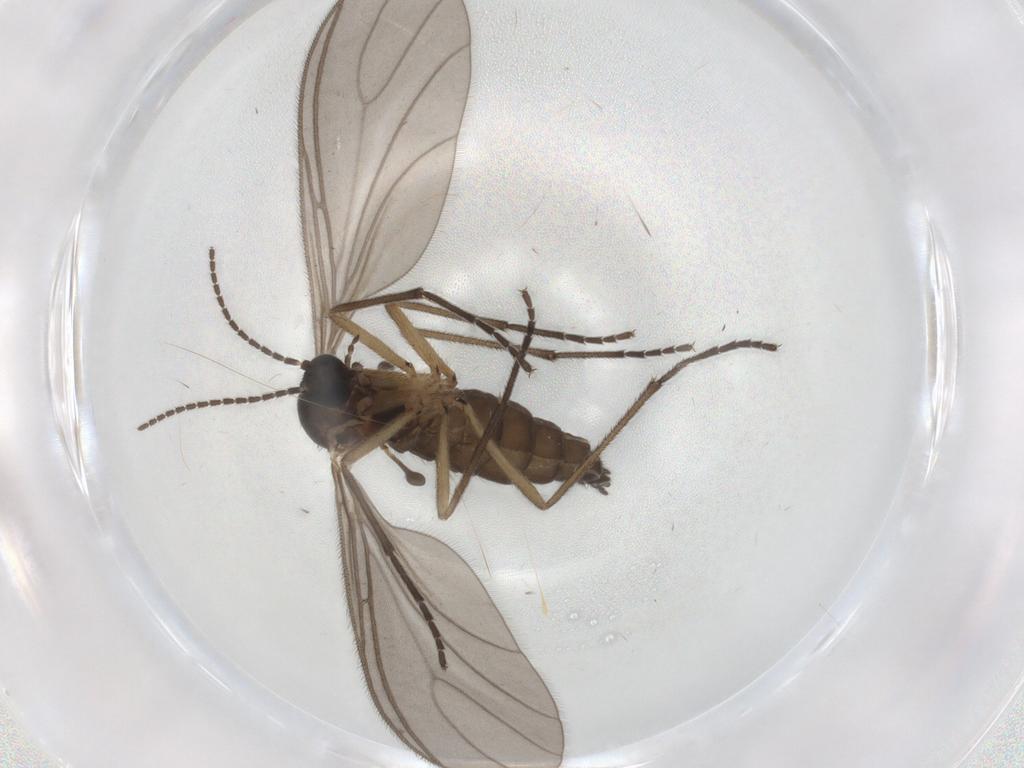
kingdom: Animalia
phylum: Arthropoda
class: Insecta
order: Diptera
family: Sciaridae
